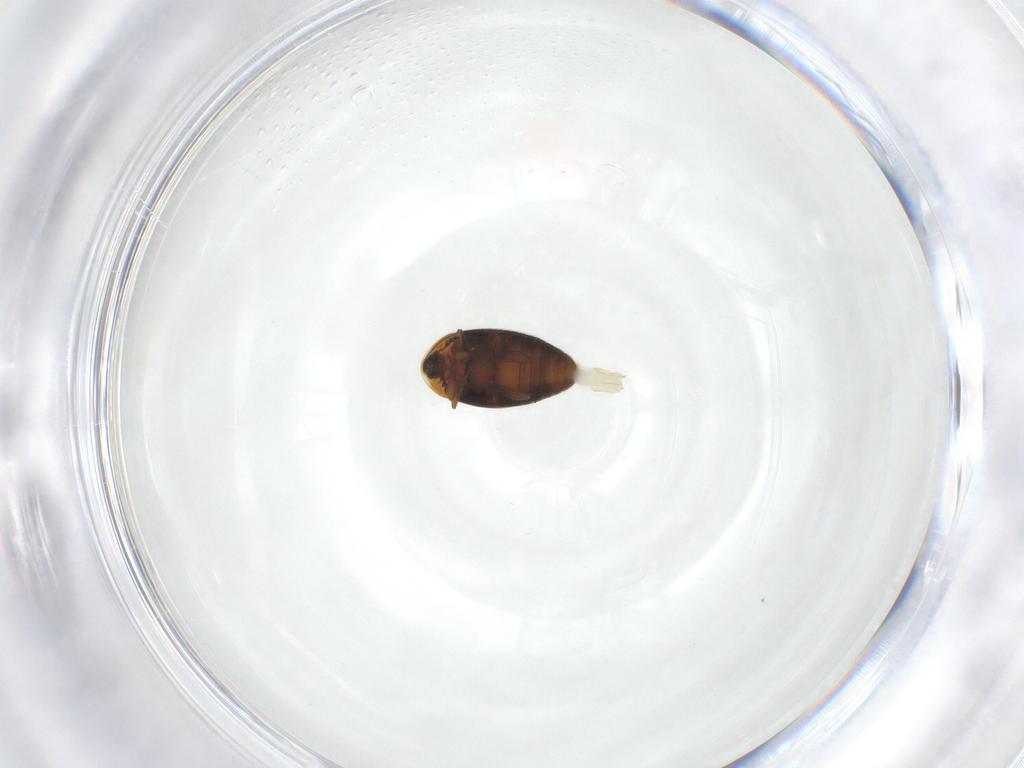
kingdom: Animalia
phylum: Arthropoda
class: Insecta
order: Coleoptera
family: Corylophidae
